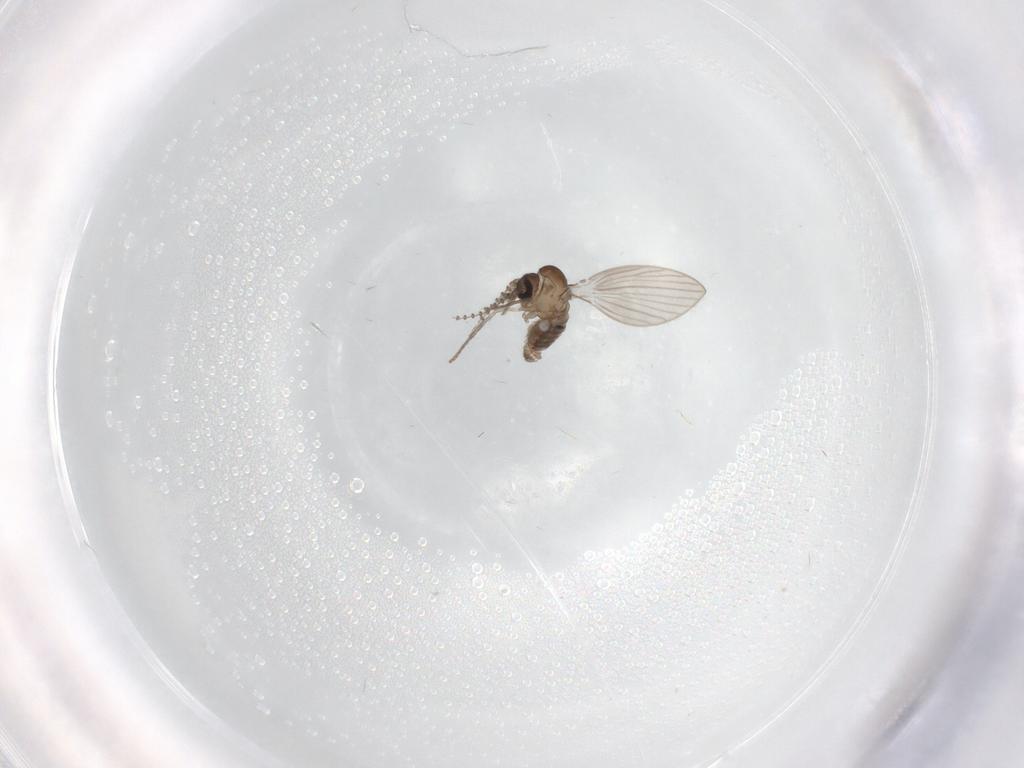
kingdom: Animalia
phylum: Arthropoda
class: Insecta
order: Diptera
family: Psychodidae
